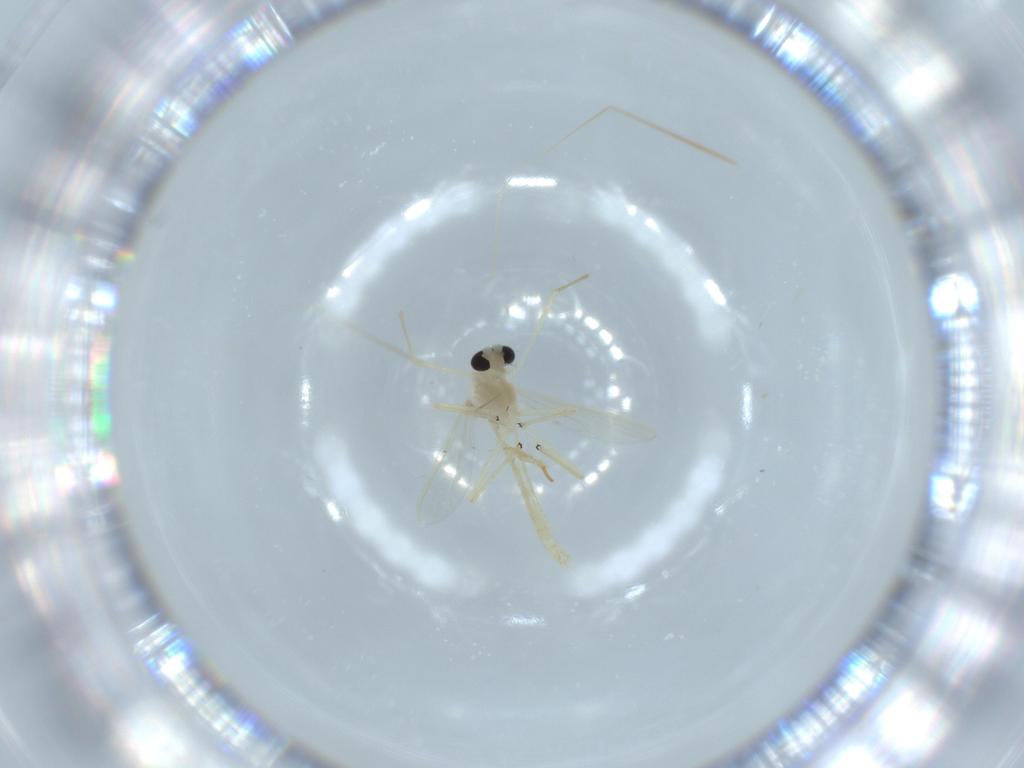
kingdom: Animalia
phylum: Arthropoda
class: Insecta
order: Diptera
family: Chironomidae
